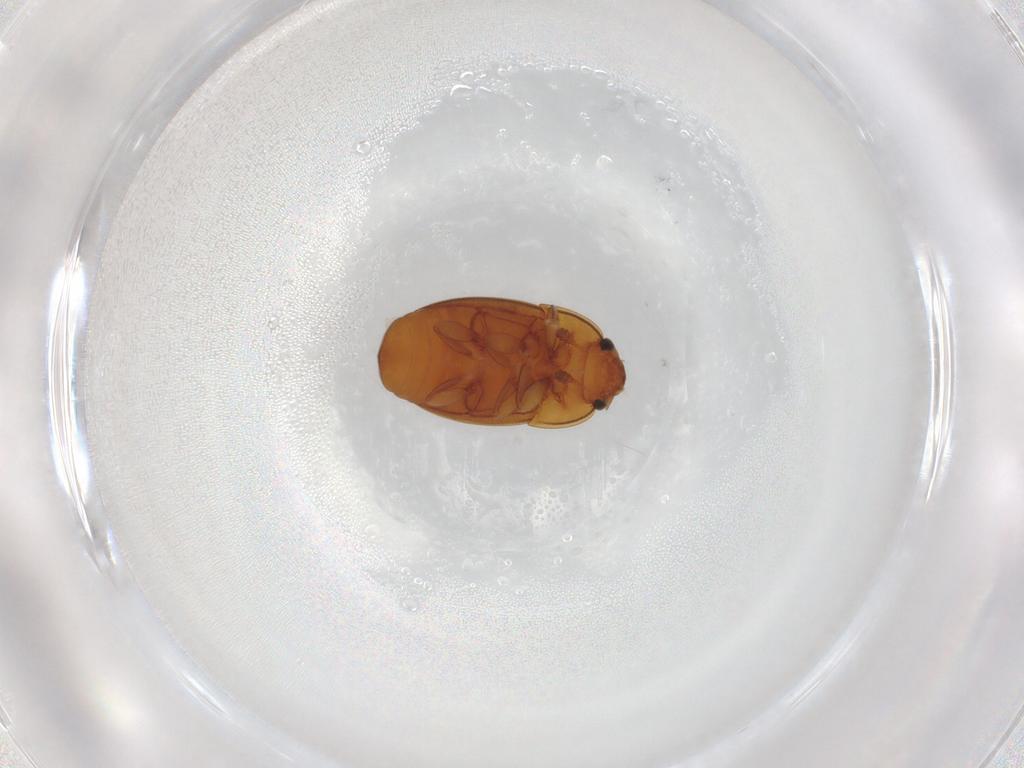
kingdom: Animalia
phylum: Arthropoda
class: Insecta
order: Coleoptera
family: Nitidulidae
